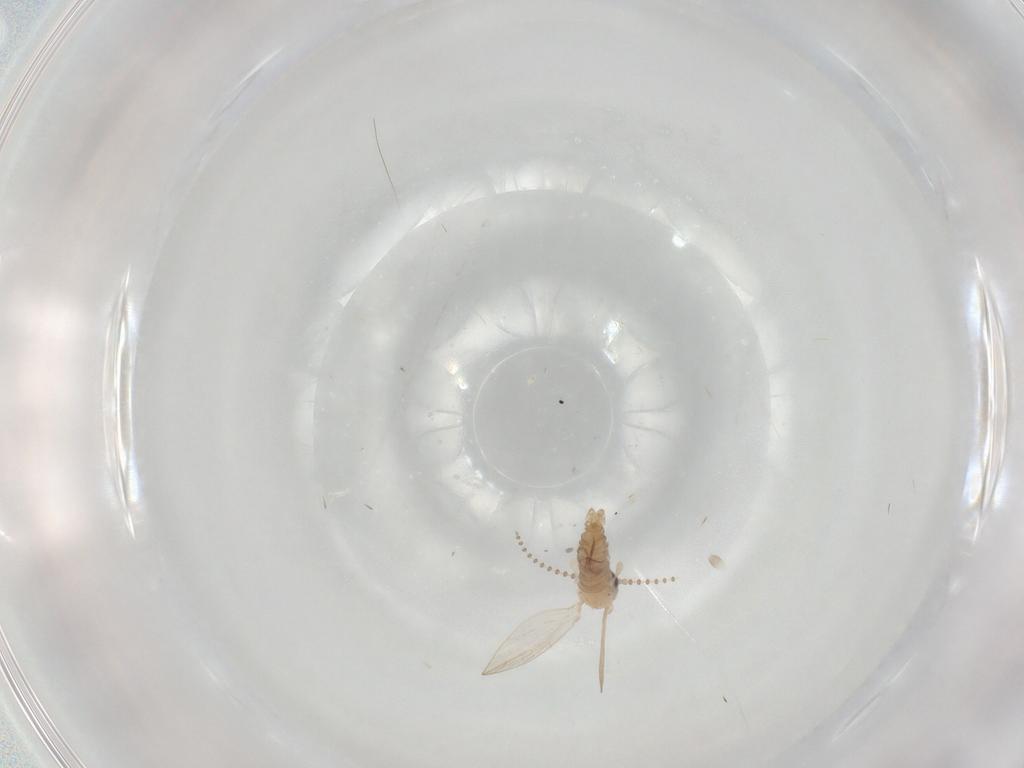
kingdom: Animalia
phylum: Arthropoda
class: Insecta
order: Diptera
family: Psychodidae
